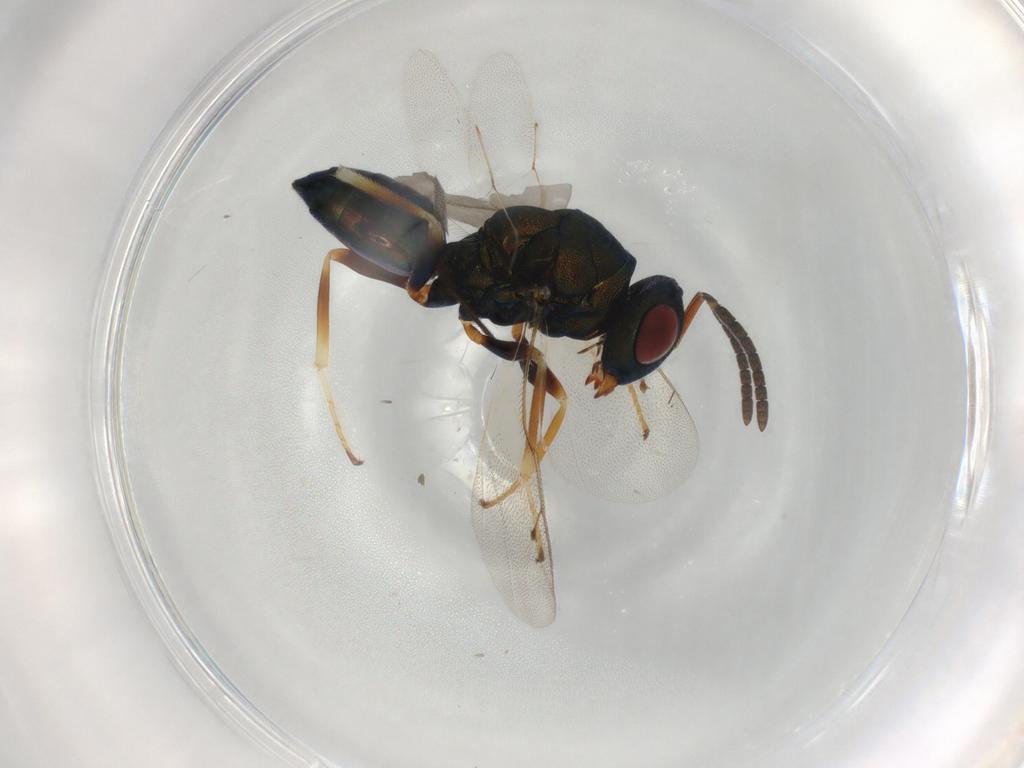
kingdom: Animalia
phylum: Arthropoda
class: Insecta
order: Hymenoptera
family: Pteromalidae
